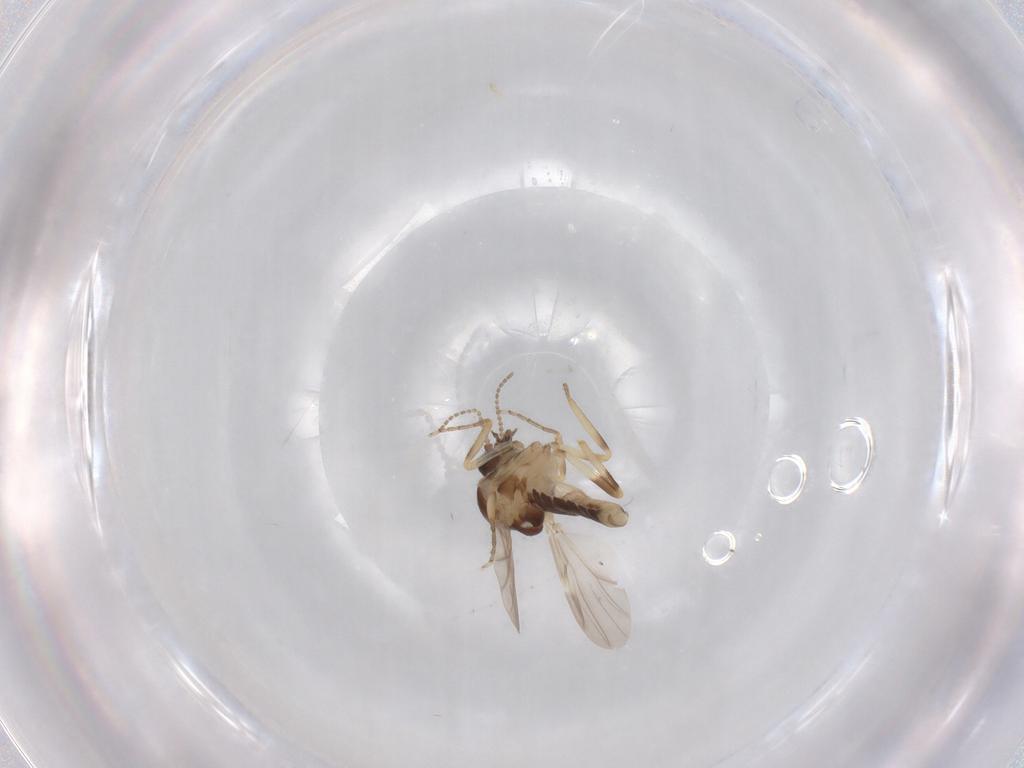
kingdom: Animalia
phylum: Arthropoda
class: Insecta
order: Diptera
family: Ceratopogonidae
